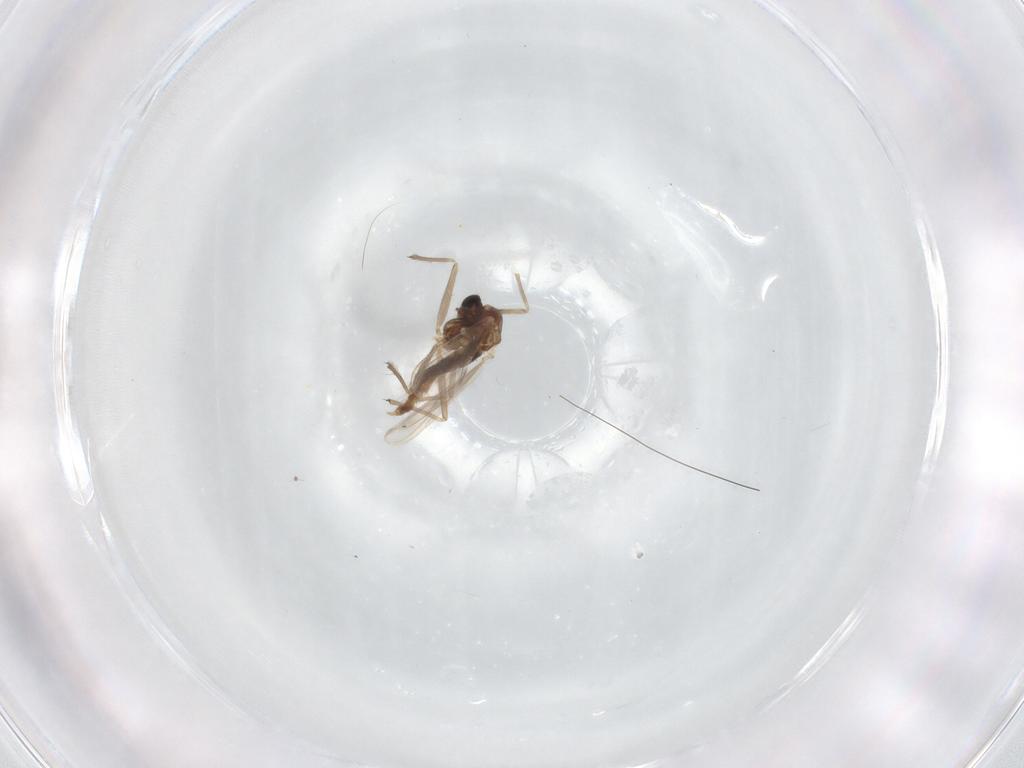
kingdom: Animalia
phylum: Arthropoda
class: Insecta
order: Diptera
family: Chironomidae
